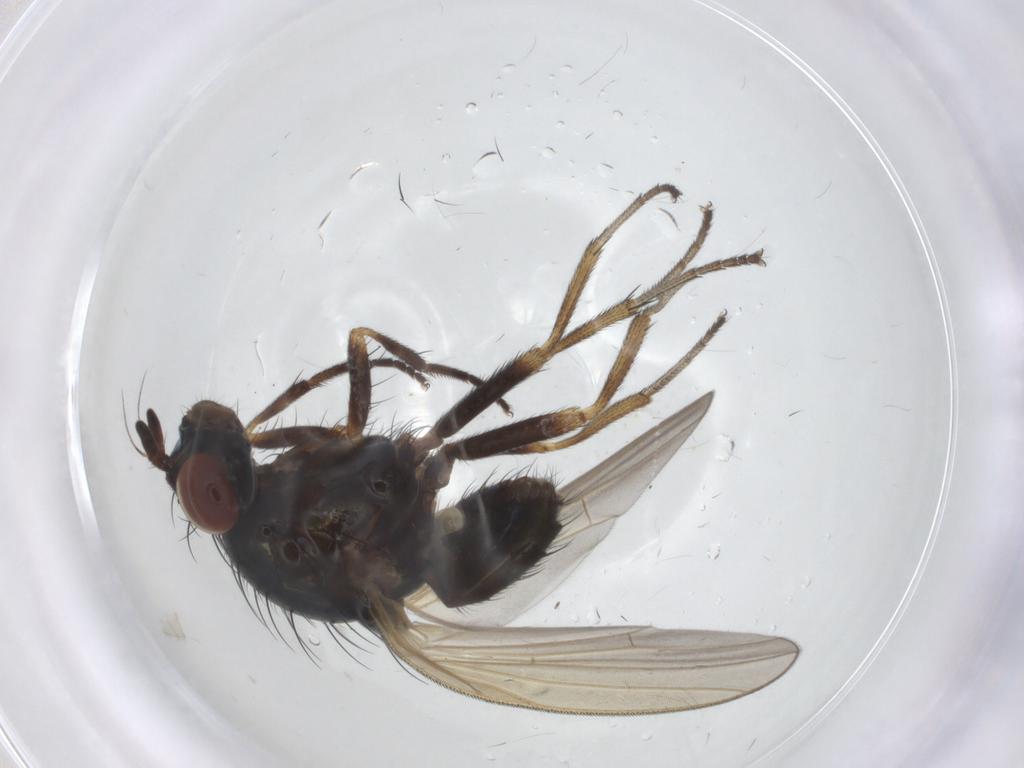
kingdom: Animalia
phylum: Arthropoda
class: Insecta
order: Diptera
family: Lauxaniidae
